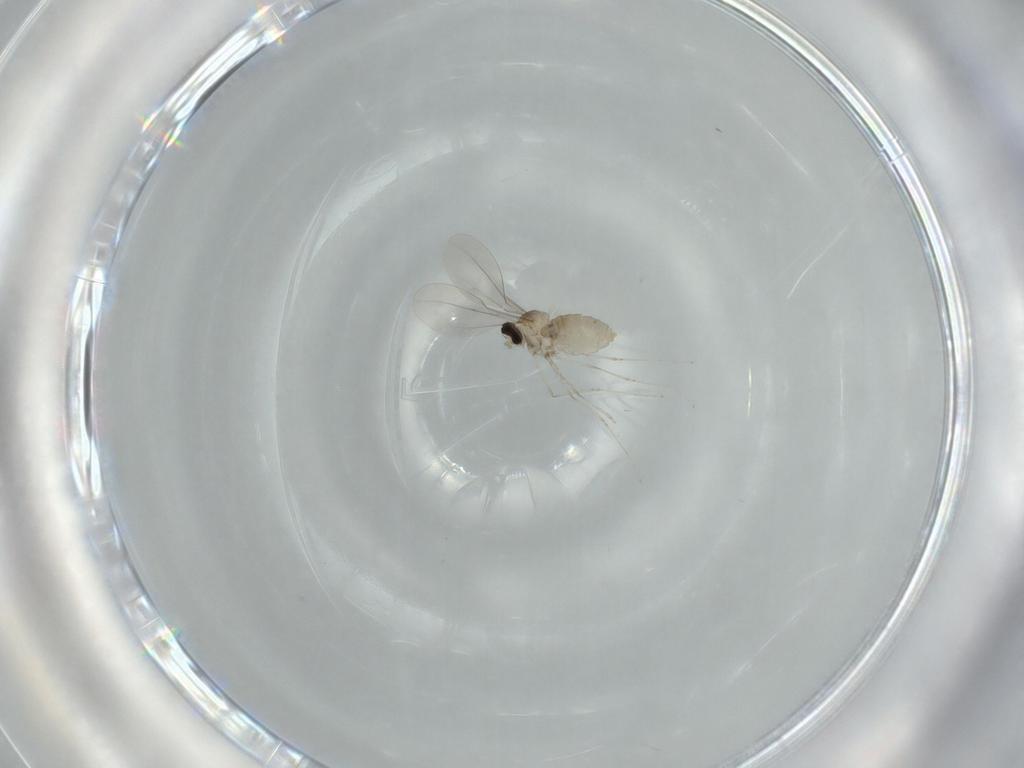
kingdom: Animalia
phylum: Arthropoda
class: Insecta
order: Diptera
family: Cecidomyiidae
